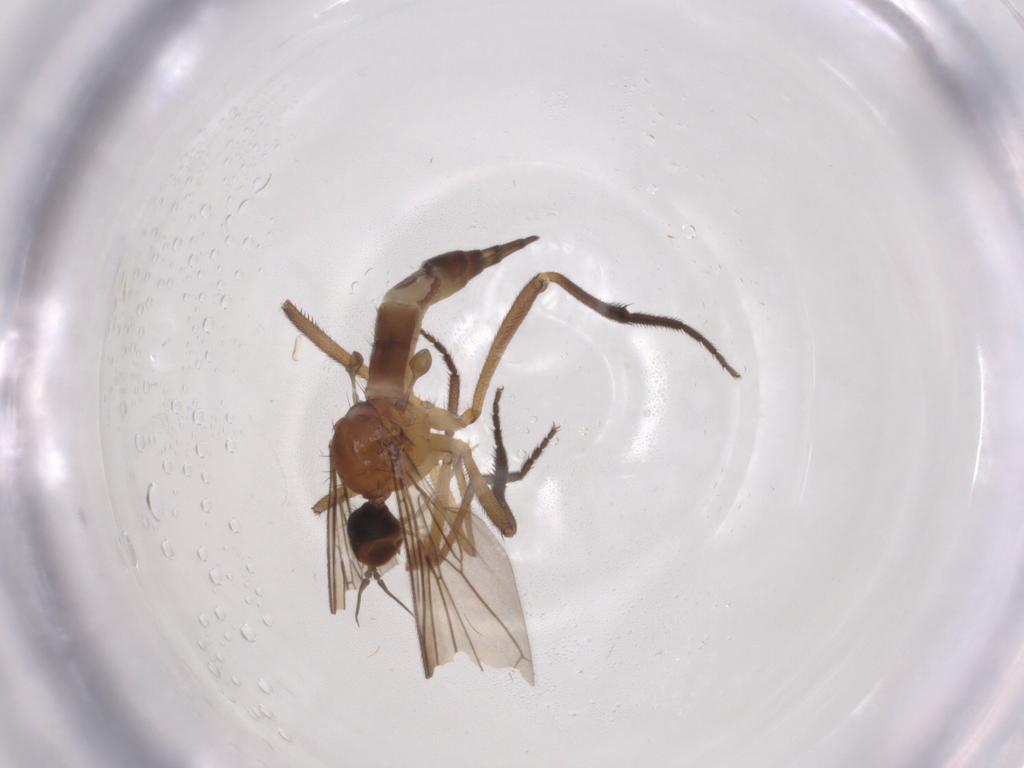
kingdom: Animalia
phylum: Arthropoda
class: Insecta
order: Diptera
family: Empididae
